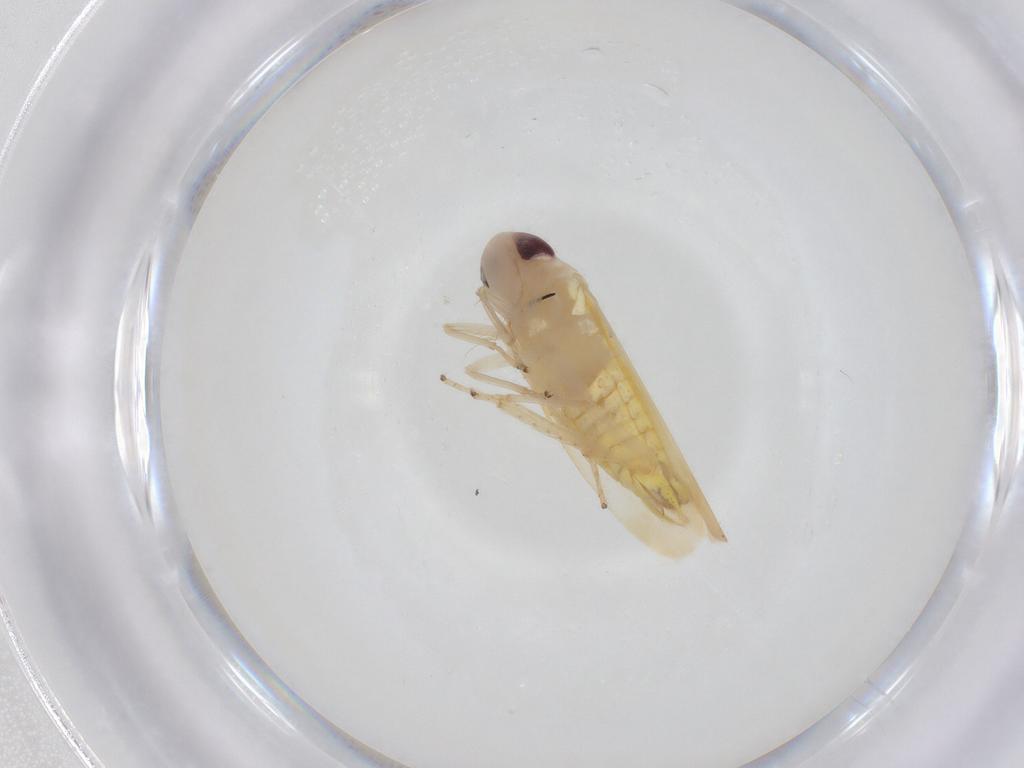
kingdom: Animalia
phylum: Arthropoda
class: Insecta
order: Hemiptera
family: Cicadellidae
